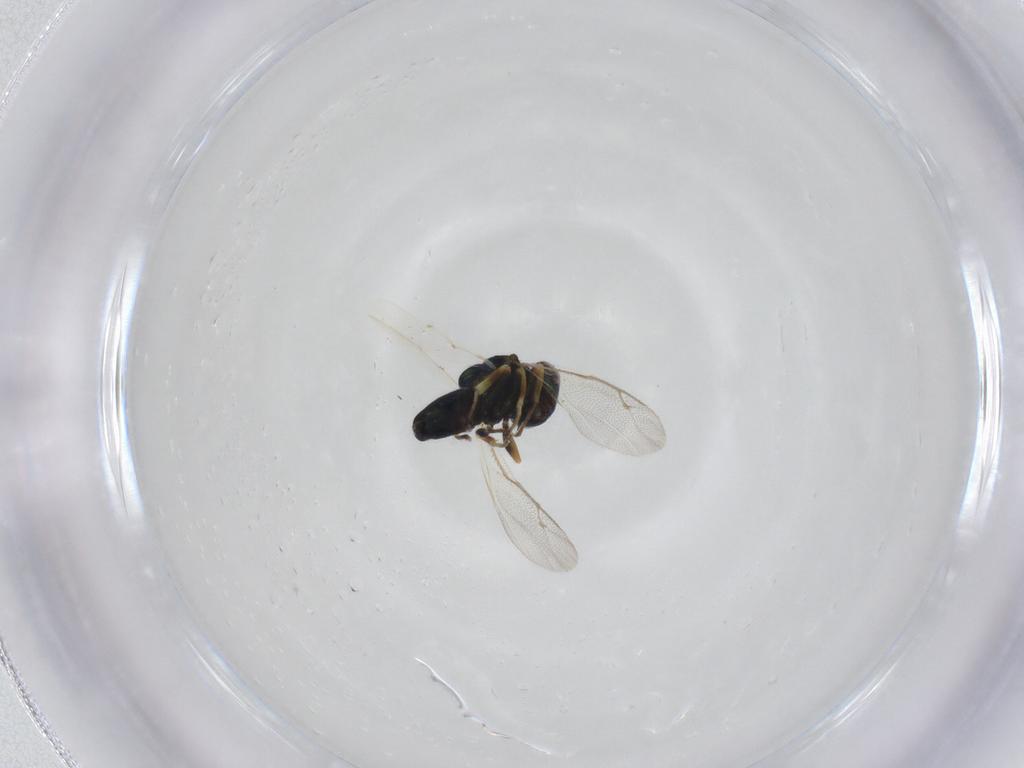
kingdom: Animalia
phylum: Arthropoda
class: Insecta
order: Hymenoptera
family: Pteromalidae
